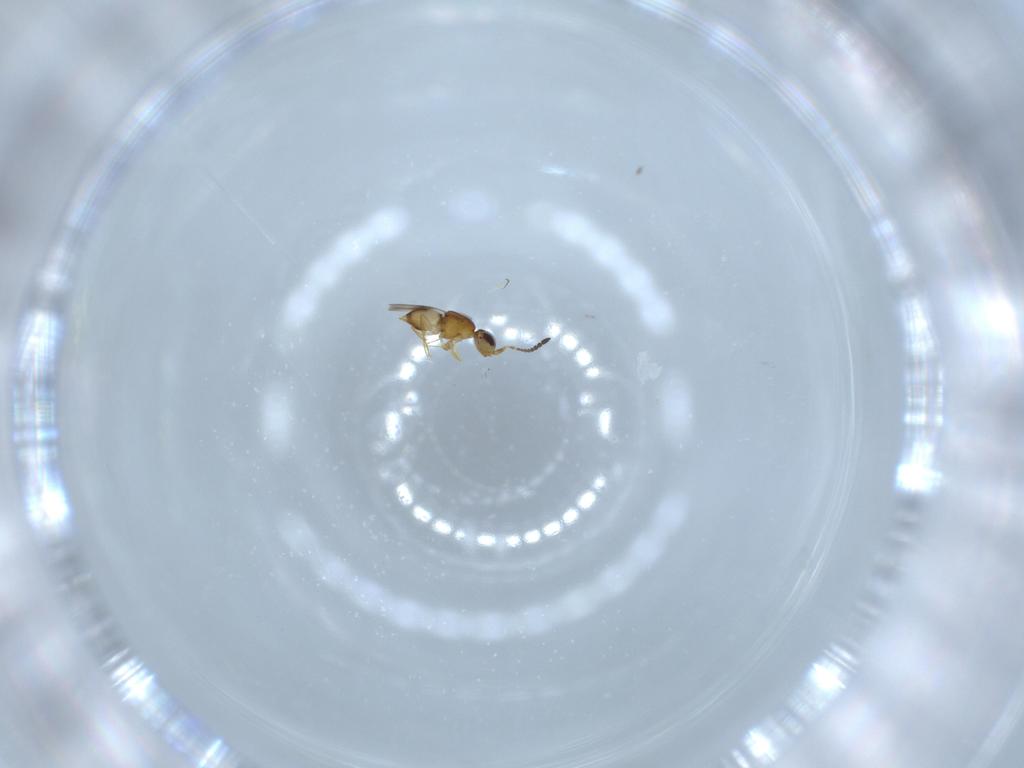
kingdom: Animalia
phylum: Arthropoda
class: Insecta
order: Hymenoptera
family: Ceraphronidae
